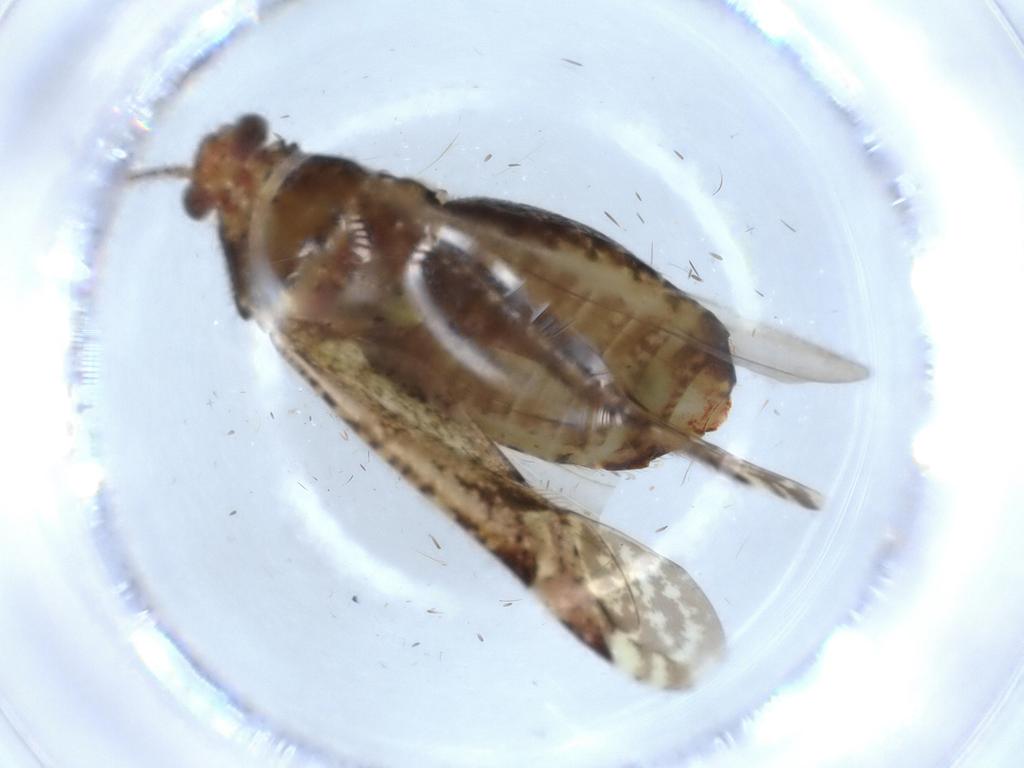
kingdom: Animalia
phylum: Arthropoda
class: Insecta
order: Hemiptera
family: Miridae
